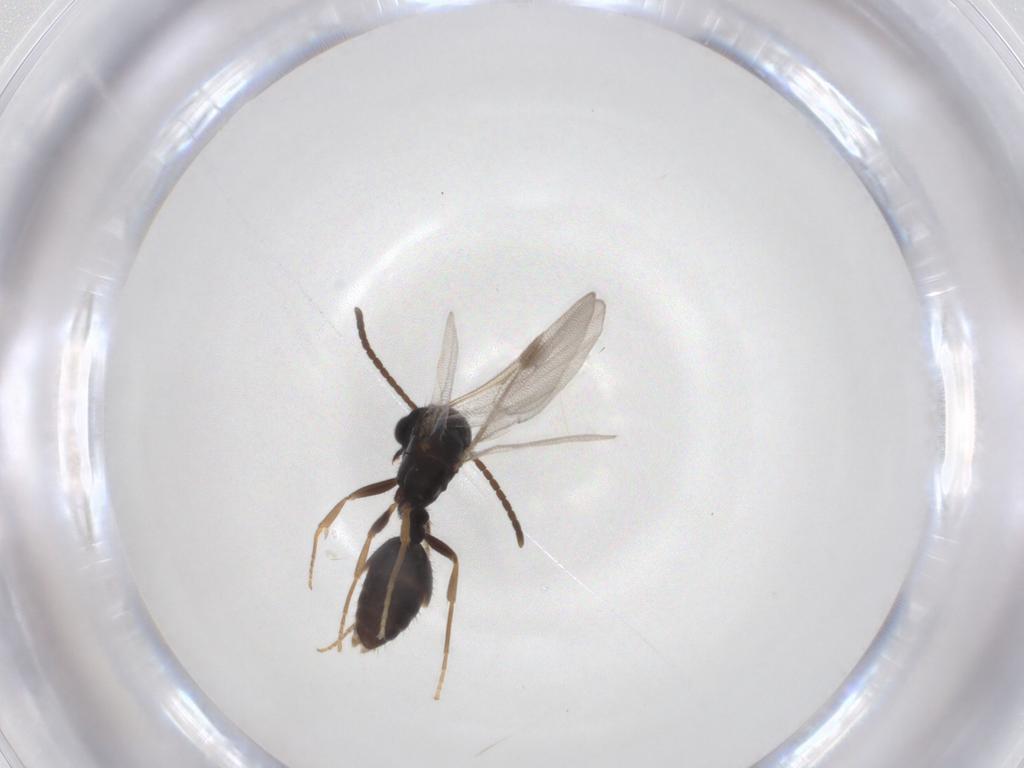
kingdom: Animalia
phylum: Arthropoda
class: Insecta
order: Hymenoptera
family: Formicidae
